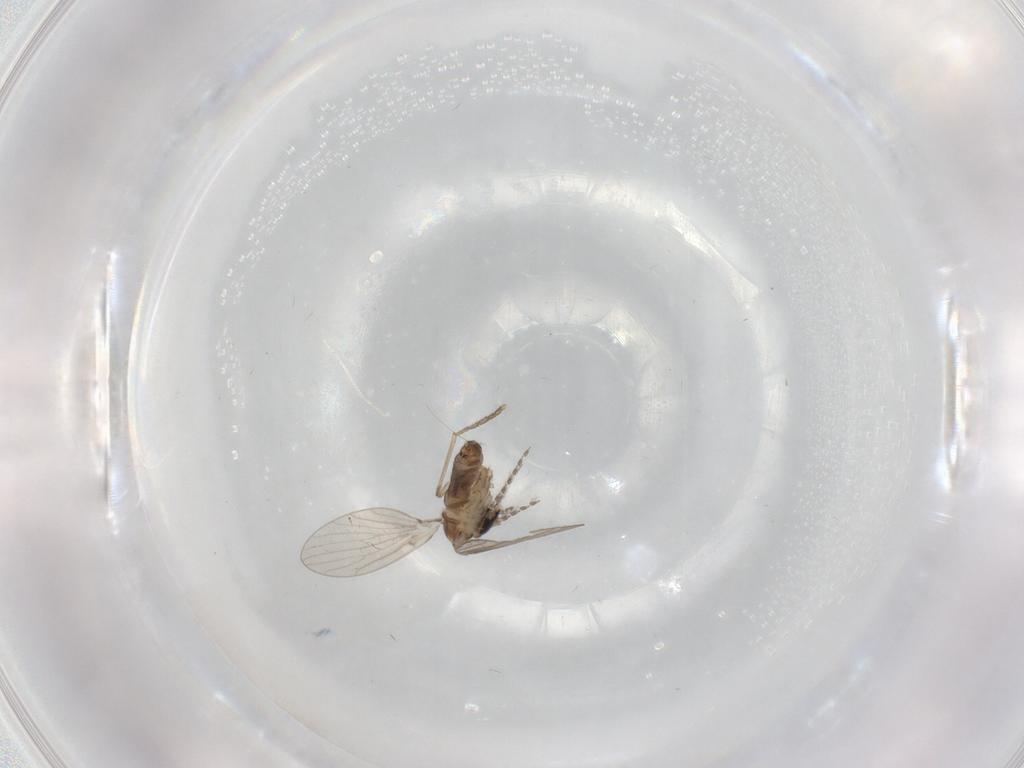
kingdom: Animalia
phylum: Arthropoda
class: Insecta
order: Diptera
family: Psychodidae
